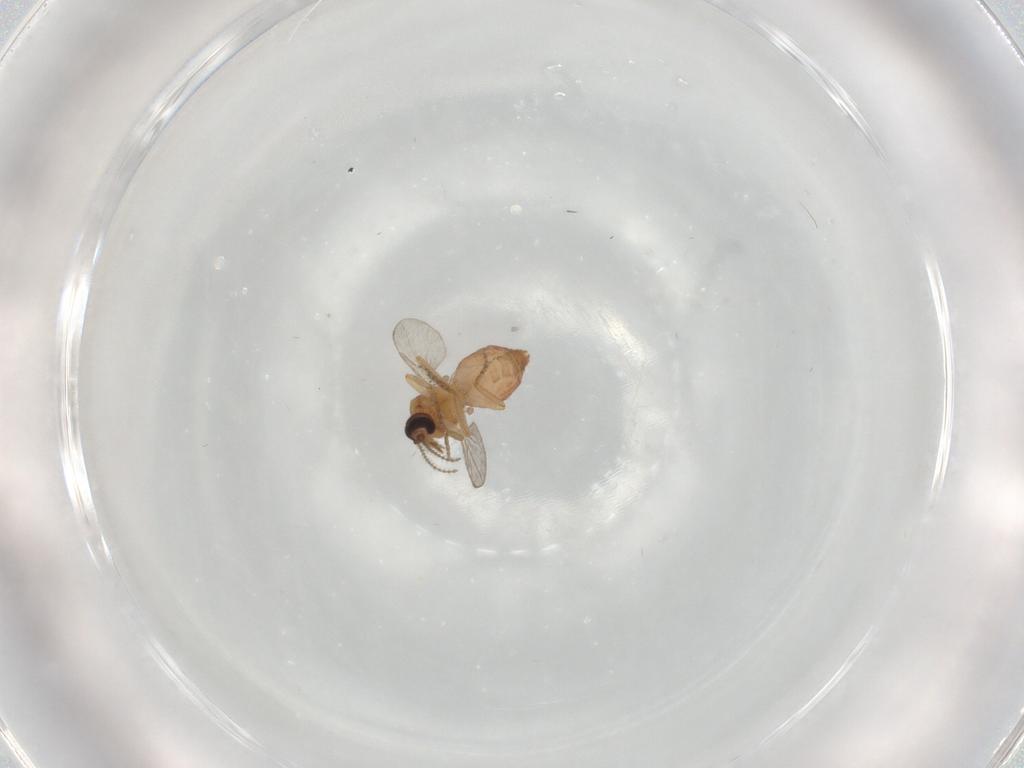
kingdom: Animalia
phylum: Arthropoda
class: Insecta
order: Diptera
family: Ceratopogonidae
